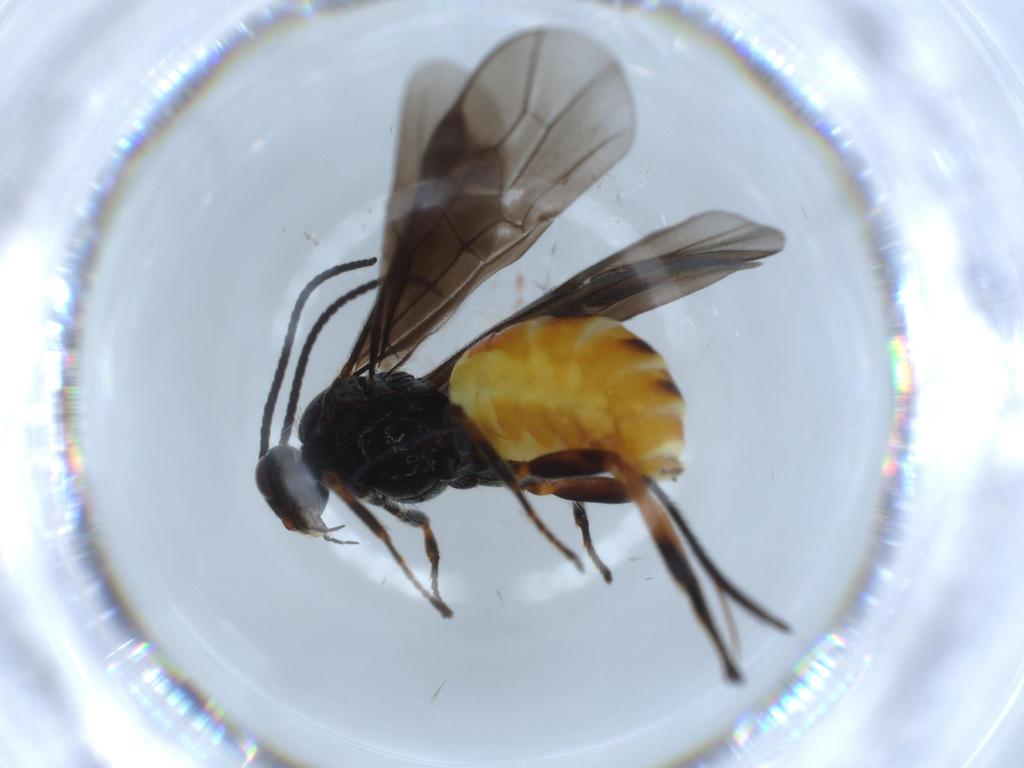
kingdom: Animalia
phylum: Arthropoda
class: Insecta
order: Hymenoptera
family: Braconidae
